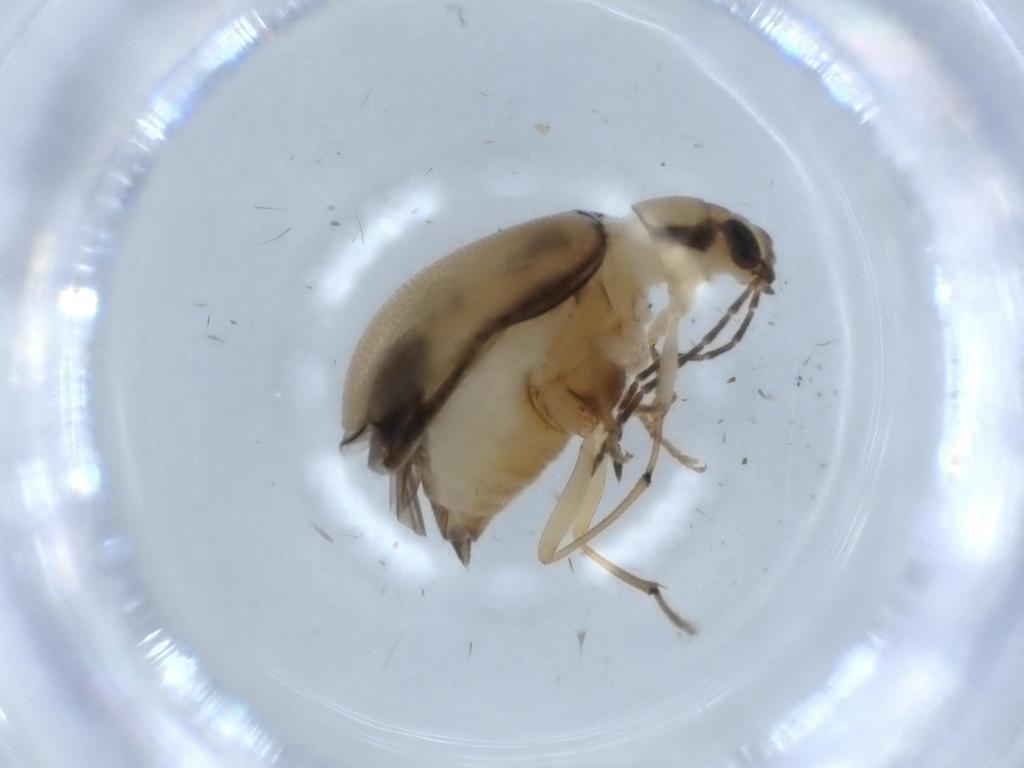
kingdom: Animalia
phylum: Arthropoda
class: Insecta
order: Coleoptera
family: Chrysomelidae
